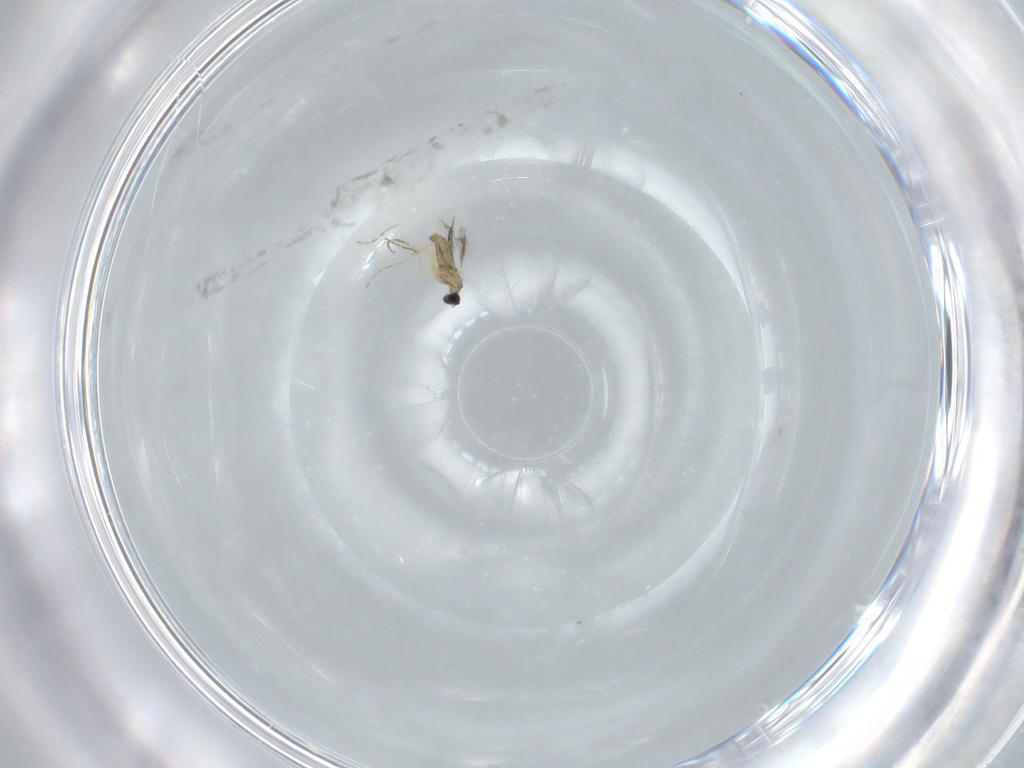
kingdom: Animalia
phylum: Arthropoda
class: Insecta
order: Diptera
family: Cecidomyiidae
